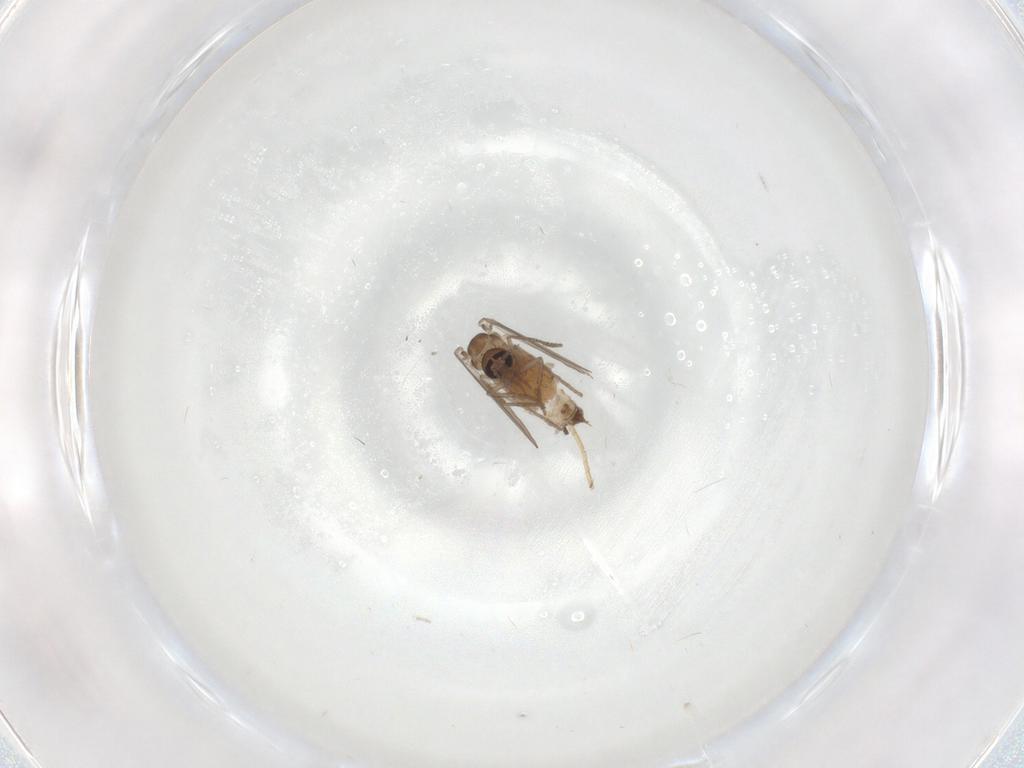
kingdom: Animalia
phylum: Arthropoda
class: Insecta
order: Diptera
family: Psychodidae
